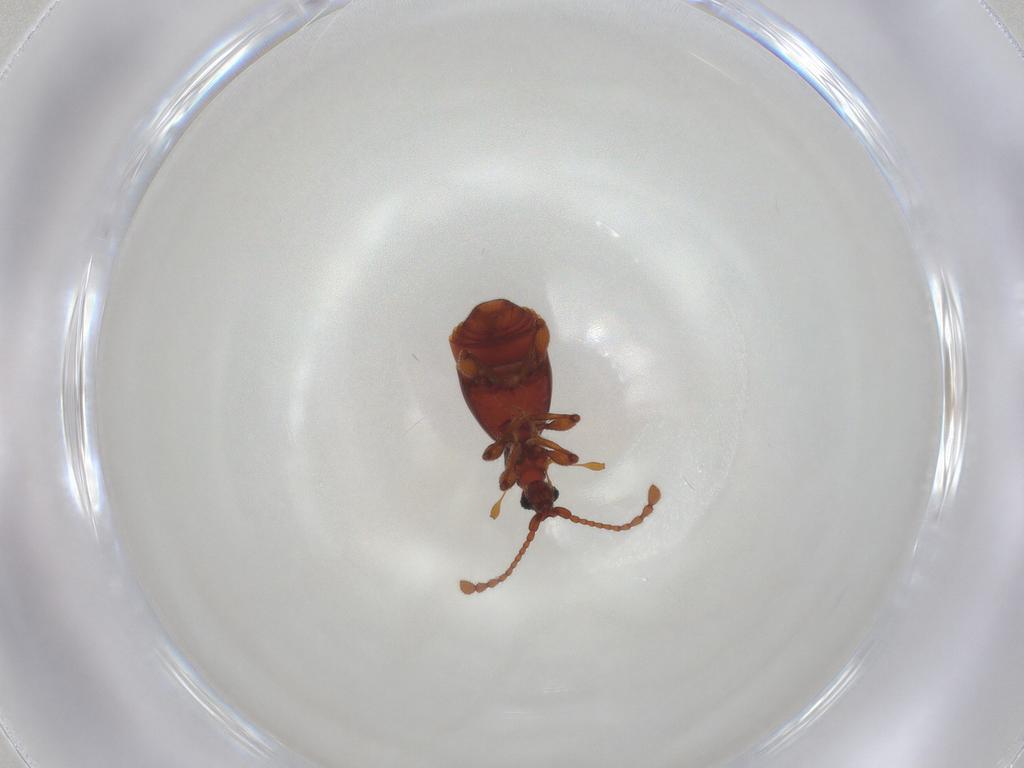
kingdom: Animalia
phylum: Arthropoda
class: Insecta
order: Coleoptera
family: Staphylinidae
